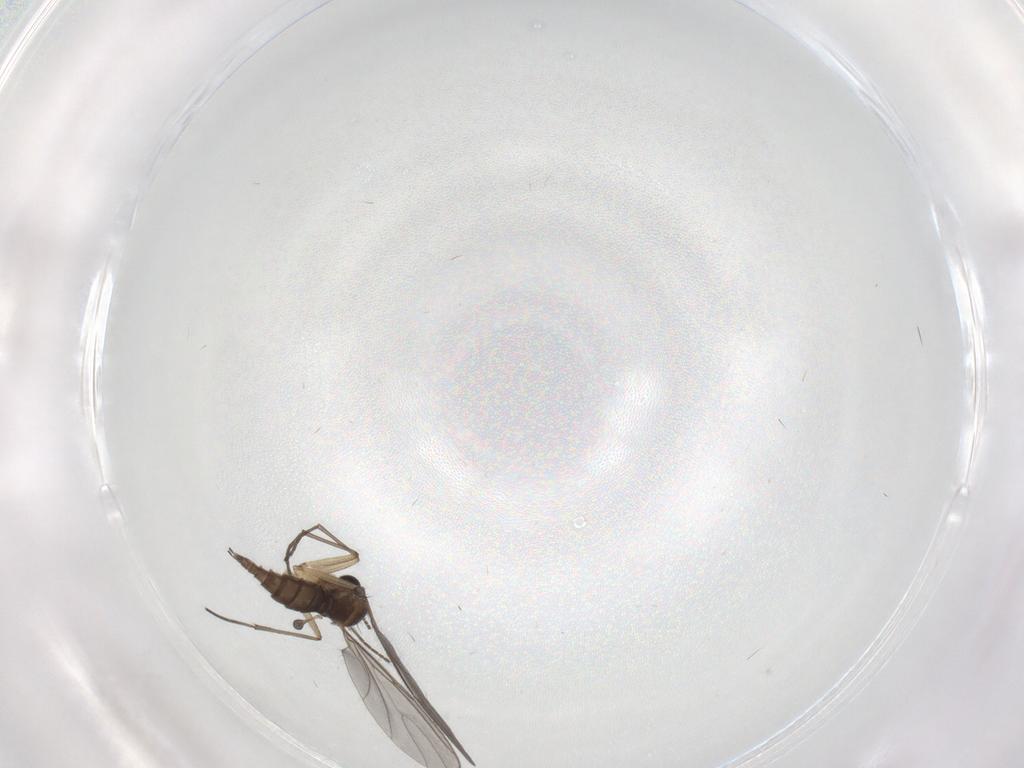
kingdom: Animalia
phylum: Arthropoda
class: Insecta
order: Diptera
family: Sciaridae
